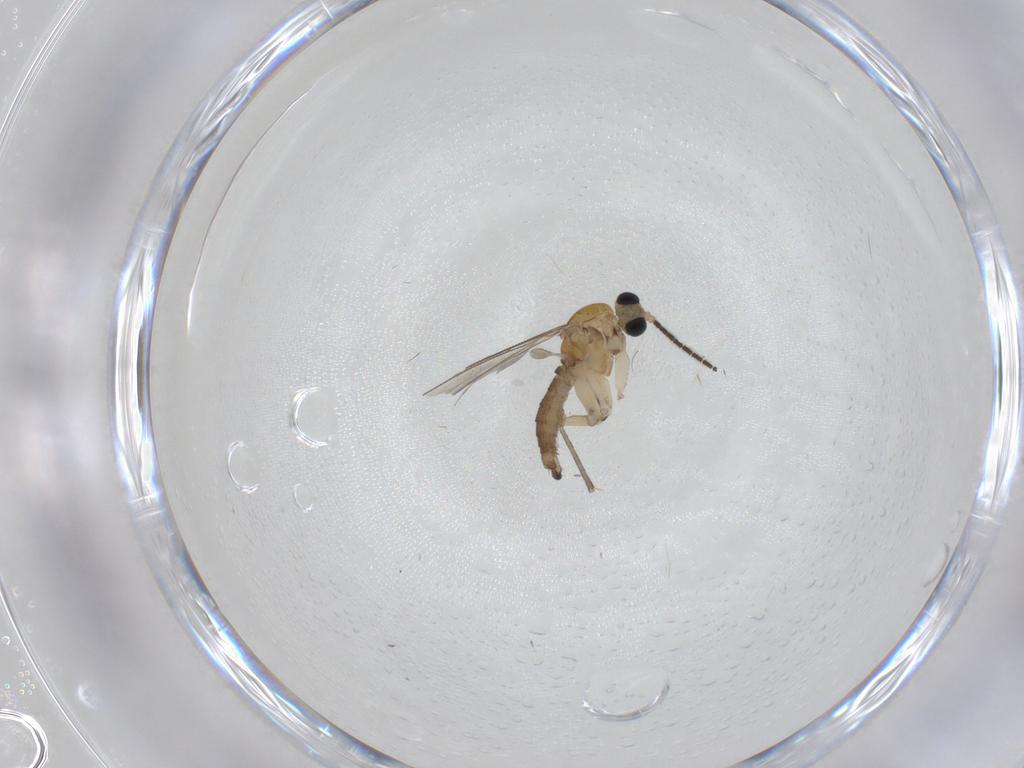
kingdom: Animalia
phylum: Arthropoda
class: Insecta
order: Diptera
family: Sciaridae
